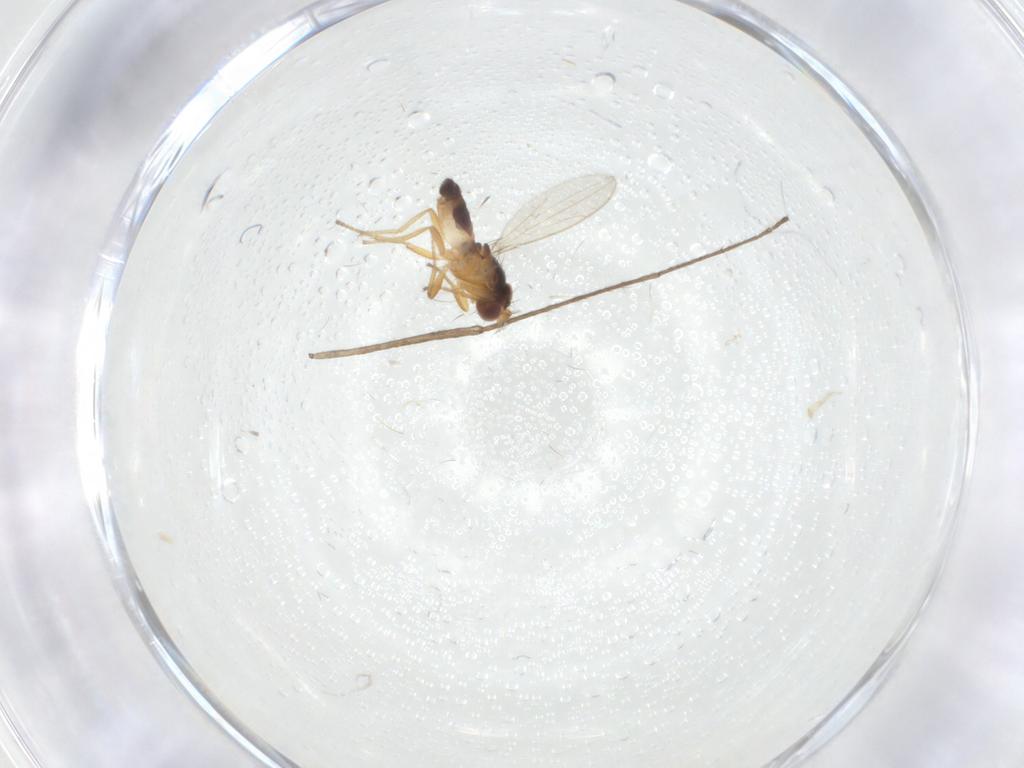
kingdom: Animalia
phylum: Arthropoda
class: Insecta
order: Diptera
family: Periscelididae
